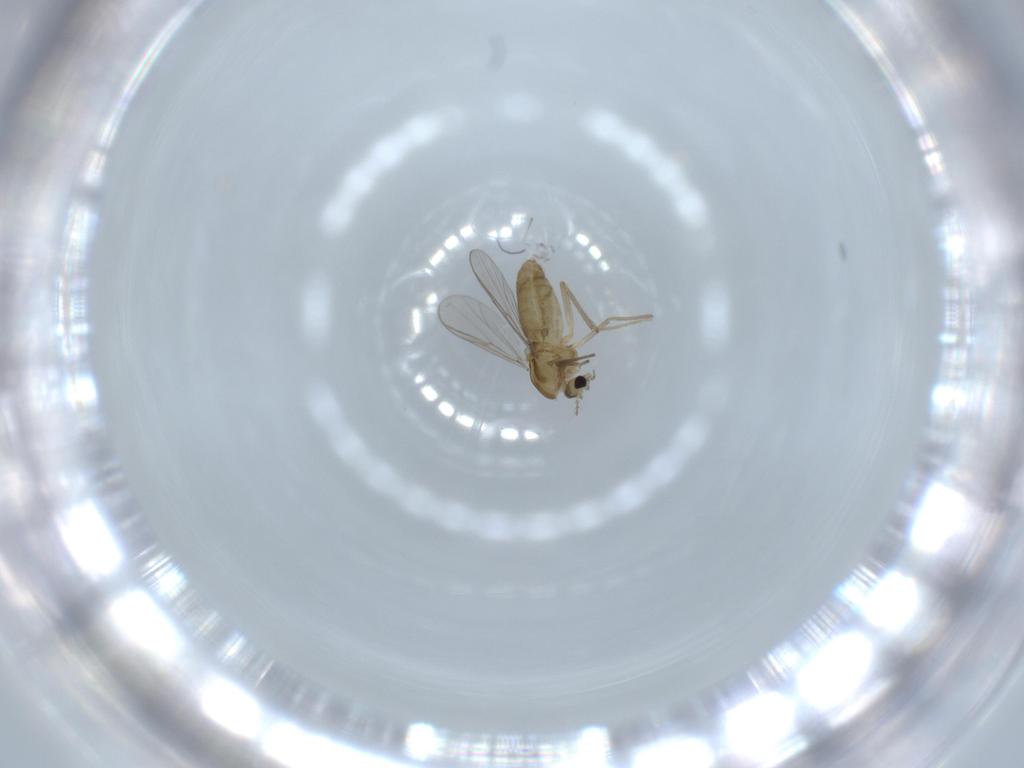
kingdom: Animalia
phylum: Arthropoda
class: Insecta
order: Diptera
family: Chironomidae
